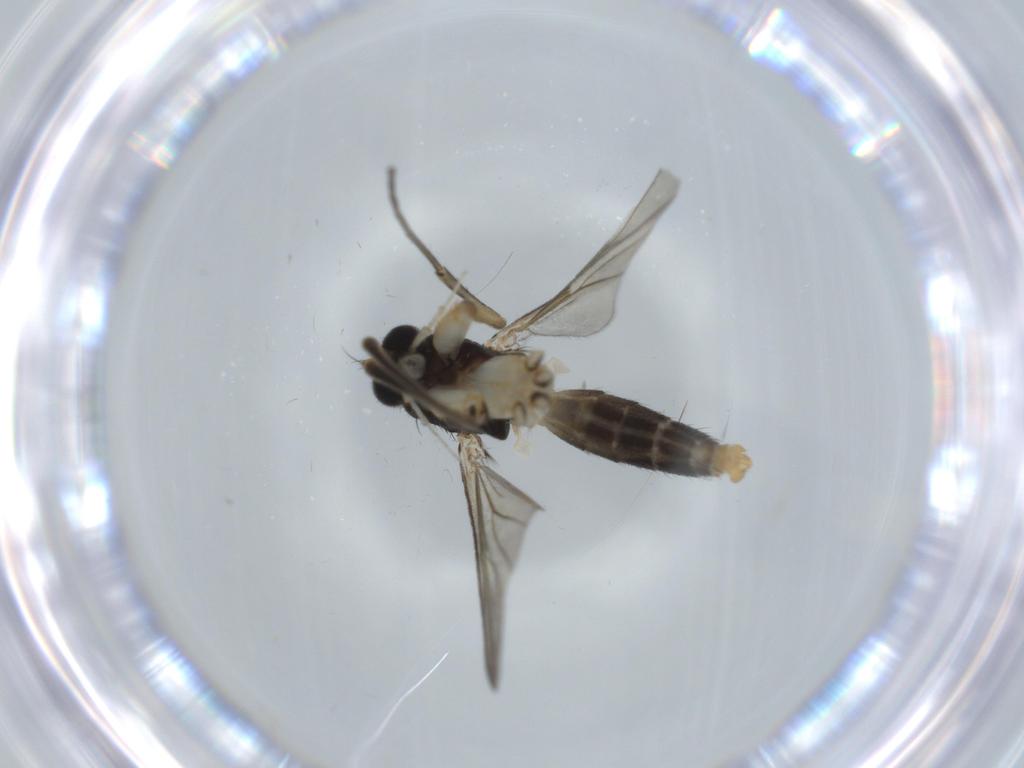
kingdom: Animalia
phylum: Arthropoda
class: Insecta
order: Diptera
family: Ceratopogonidae
